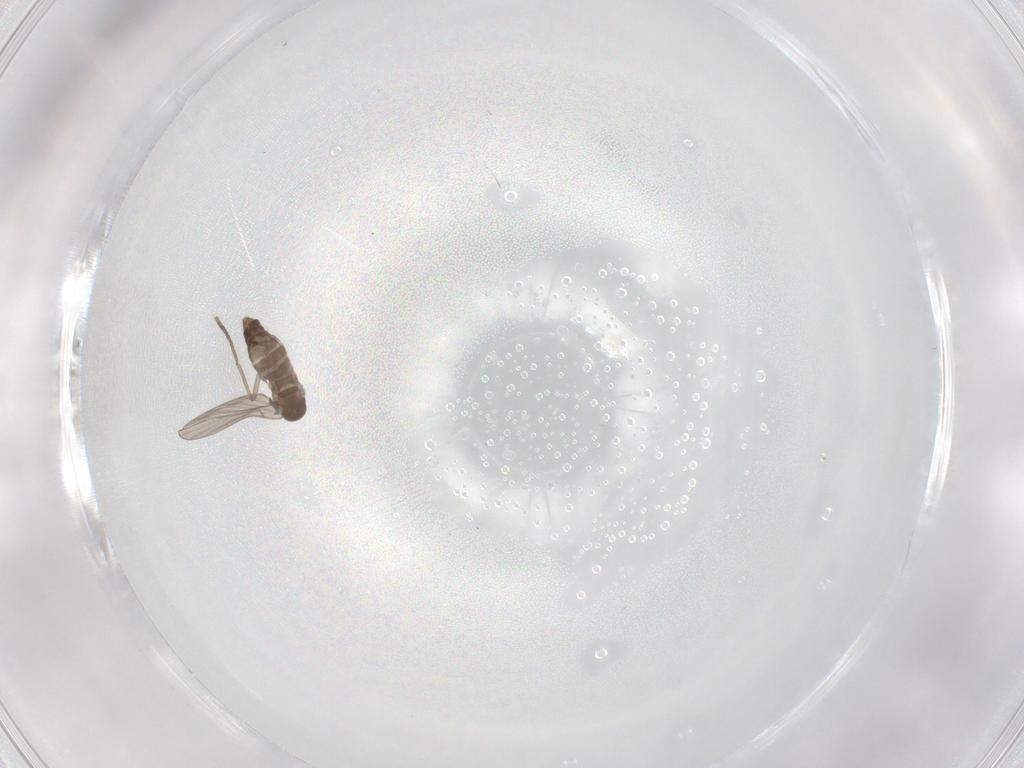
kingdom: Animalia
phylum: Arthropoda
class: Insecta
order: Diptera
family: Psychodidae
